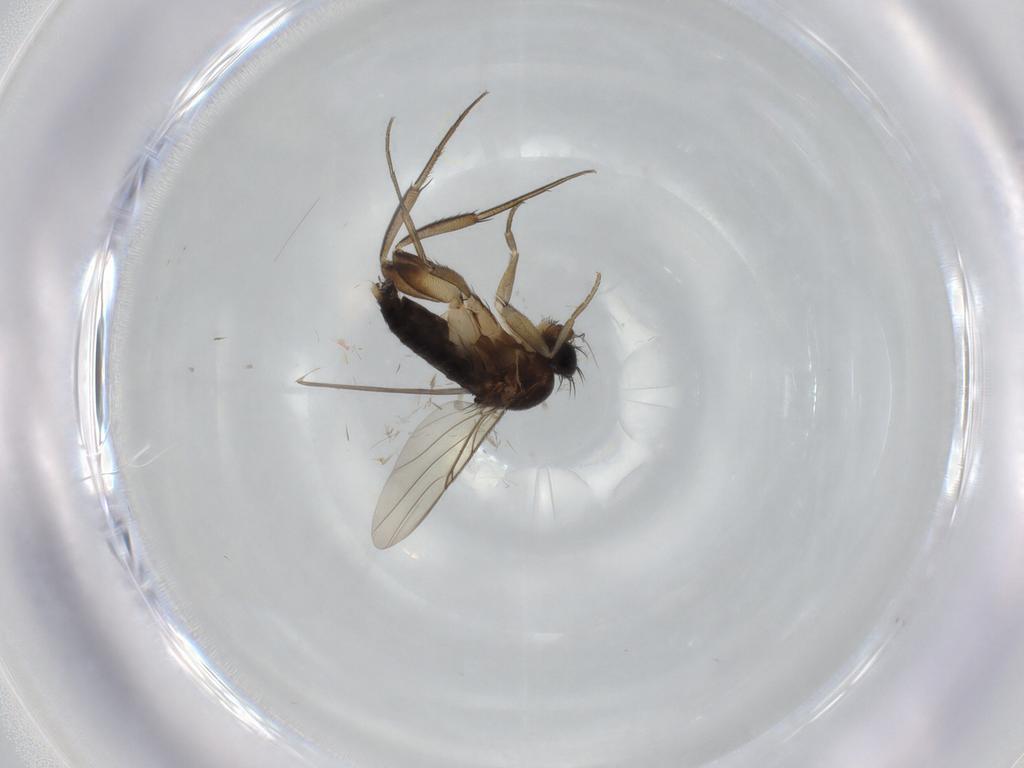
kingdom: Animalia
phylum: Arthropoda
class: Insecta
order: Diptera
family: Phoridae
